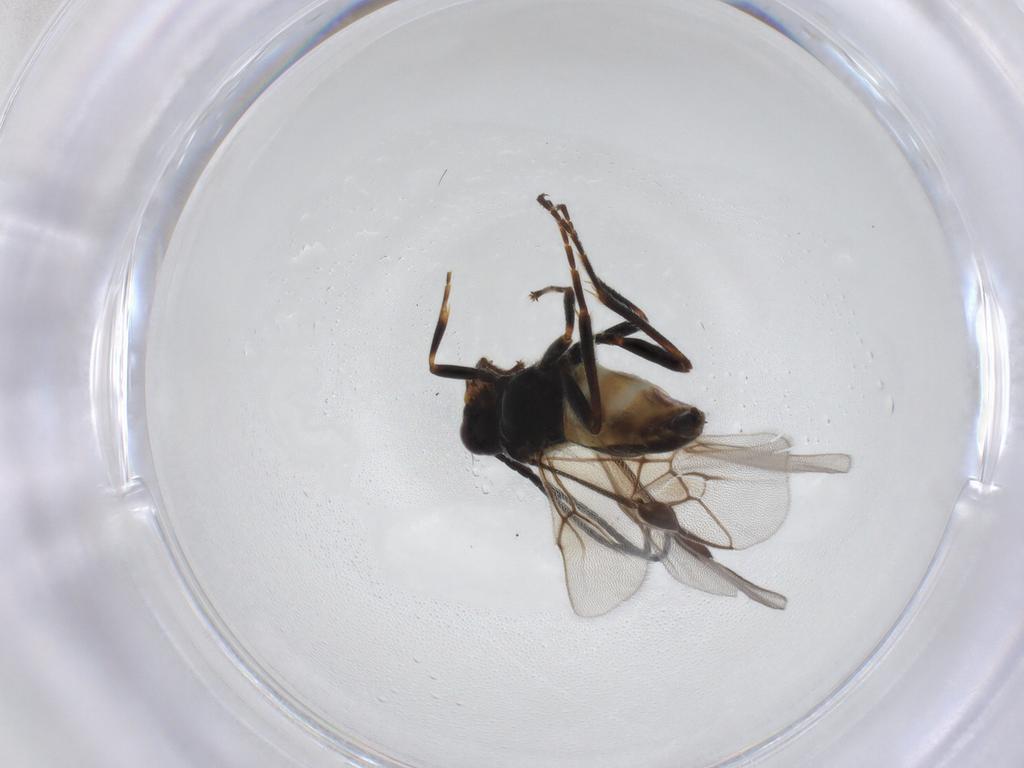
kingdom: Animalia
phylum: Arthropoda
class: Insecta
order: Hymenoptera
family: Braconidae
